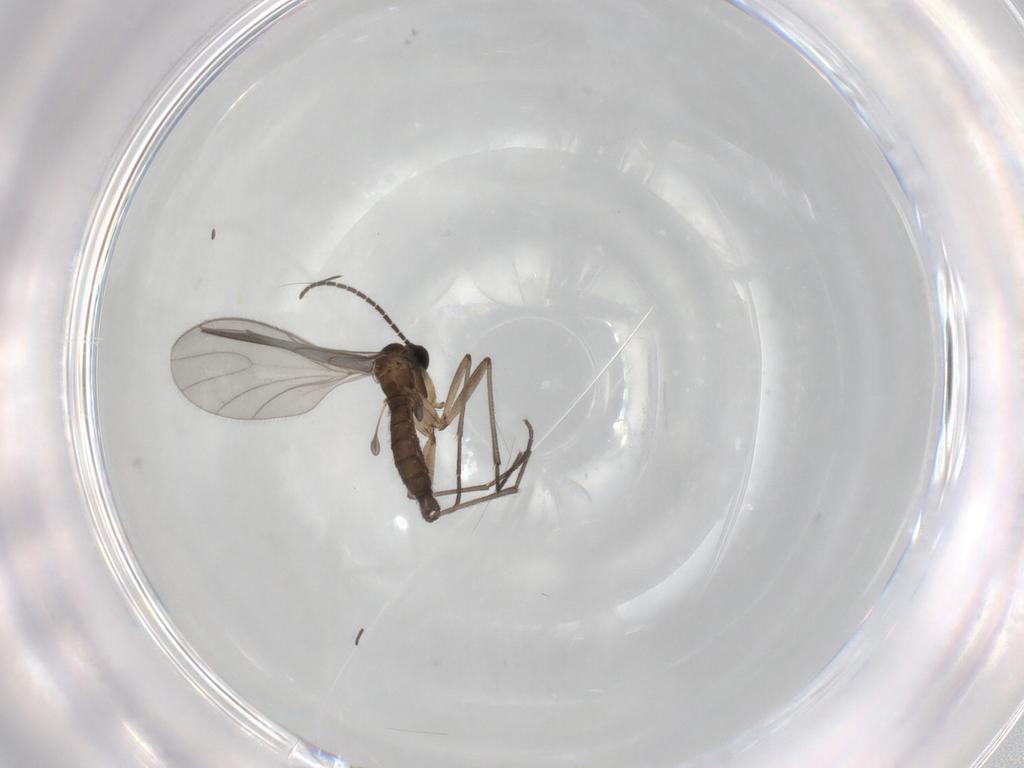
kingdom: Animalia
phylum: Arthropoda
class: Insecta
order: Diptera
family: Sciaridae
